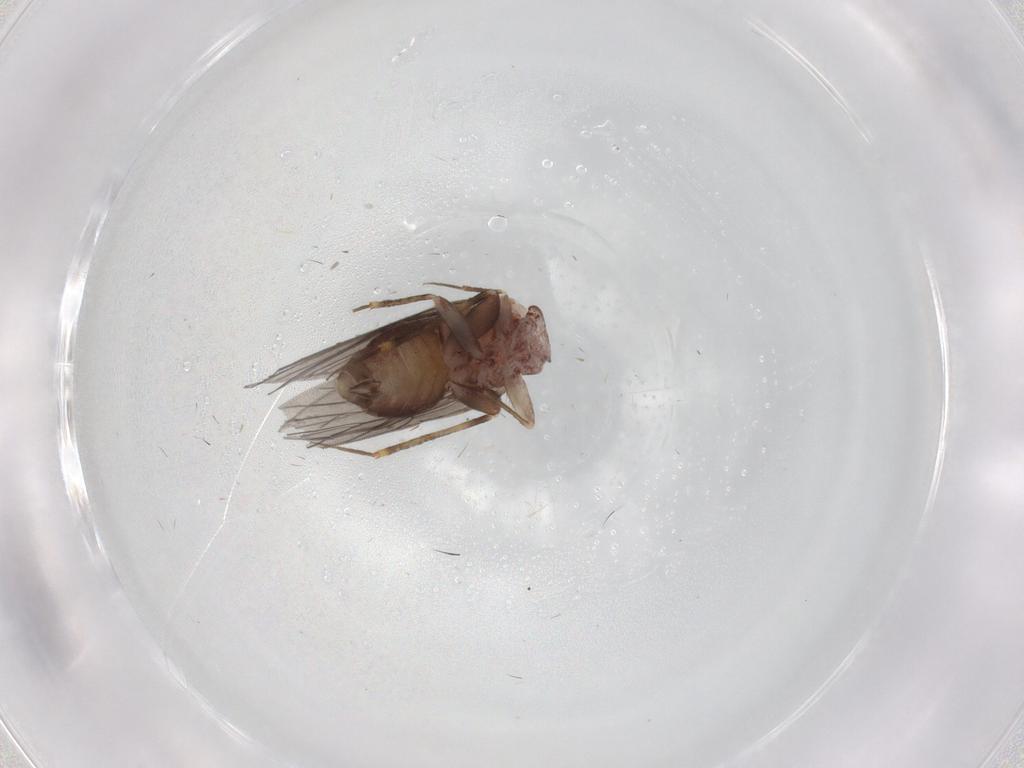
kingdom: Animalia
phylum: Arthropoda
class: Insecta
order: Psocodea
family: Lepidopsocidae
